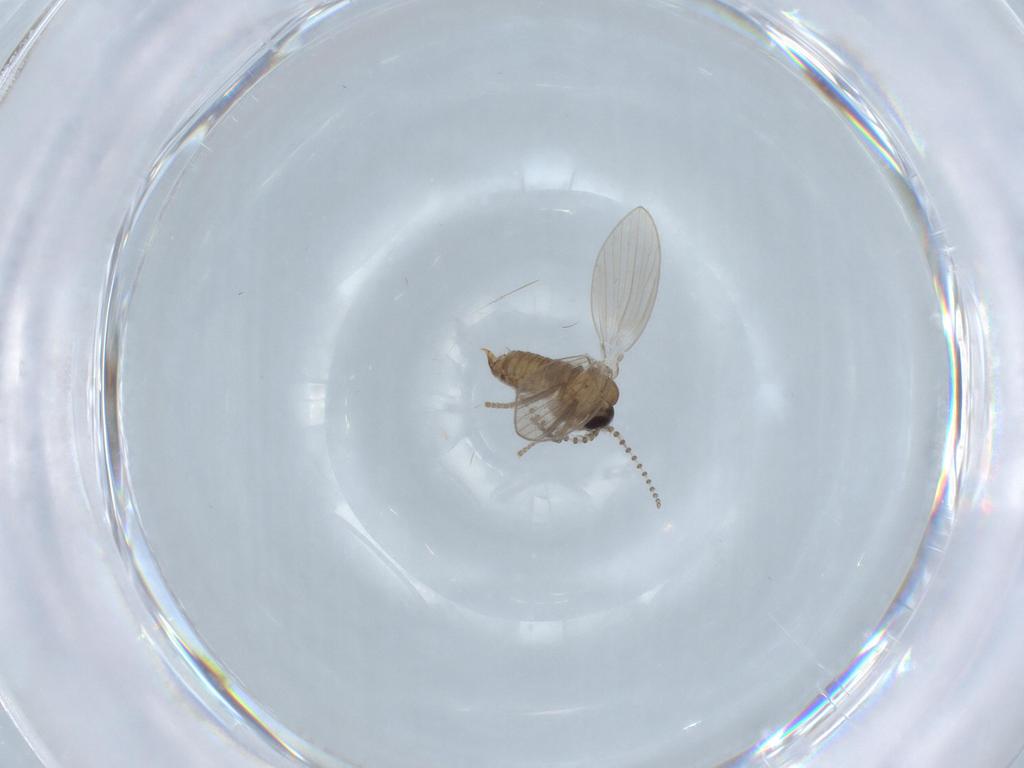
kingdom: Animalia
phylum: Arthropoda
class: Insecta
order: Diptera
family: Psychodidae
